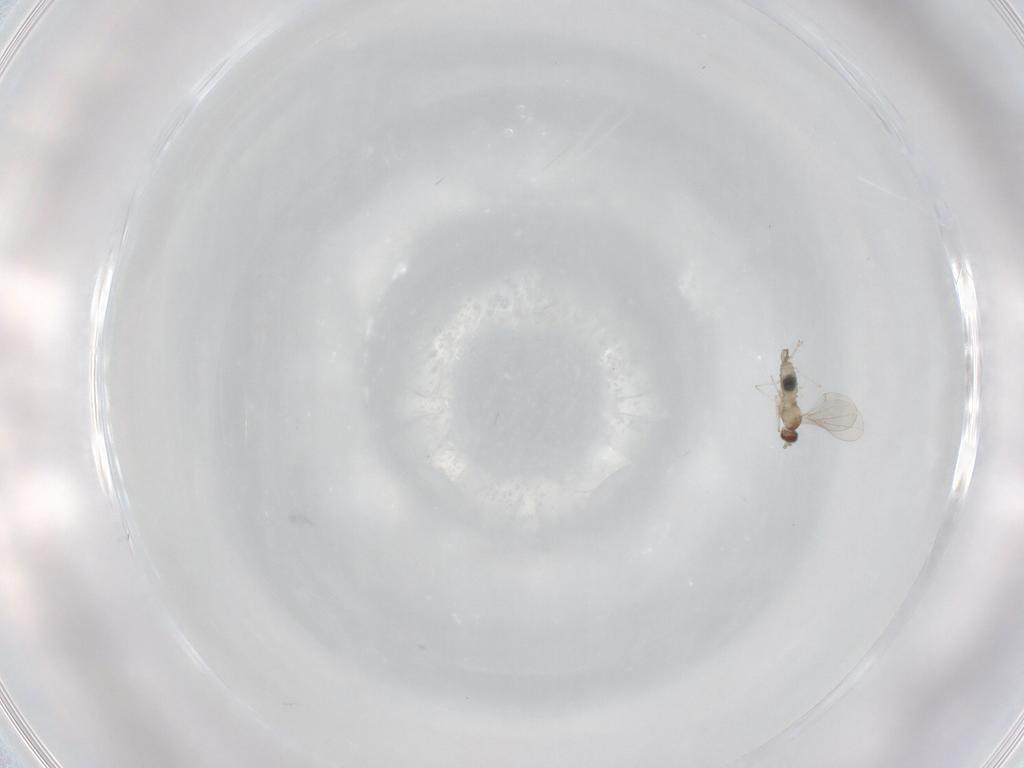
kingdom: Animalia
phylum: Arthropoda
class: Insecta
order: Diptera
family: Cecidomyiidae
